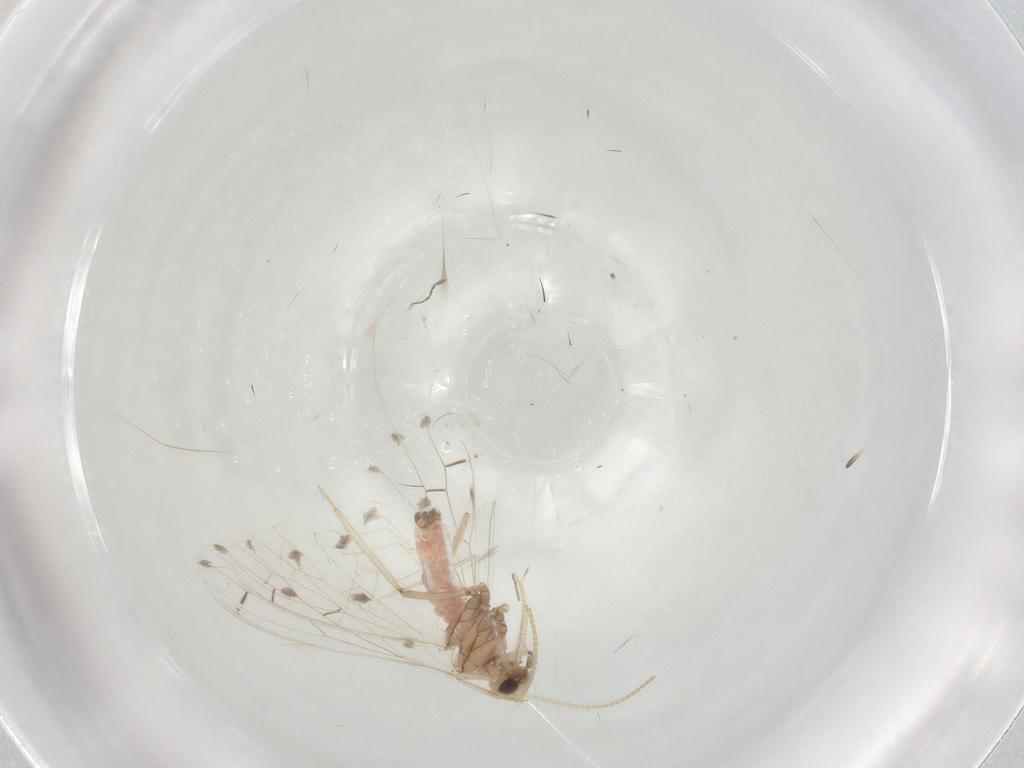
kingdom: Animalia
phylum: Arthropoda
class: Insecta
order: Neuroptera
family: Coniopterygidae
